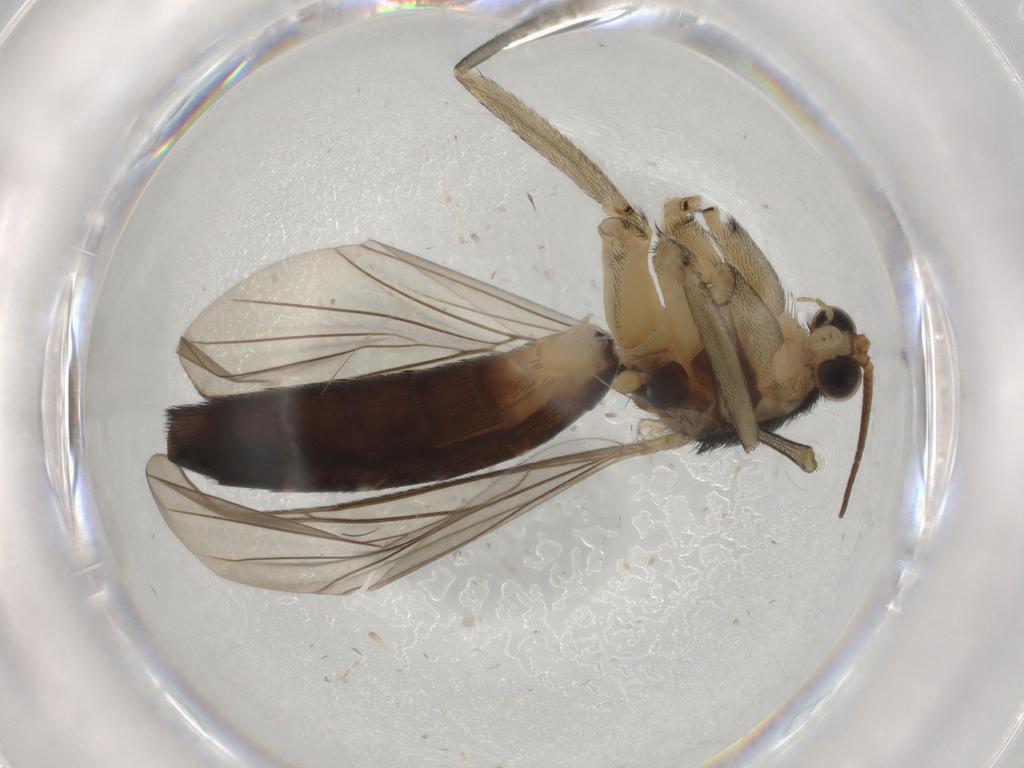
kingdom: Animalia
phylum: Arthropoda
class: Insecta
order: Diptera
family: Keroplatidae
